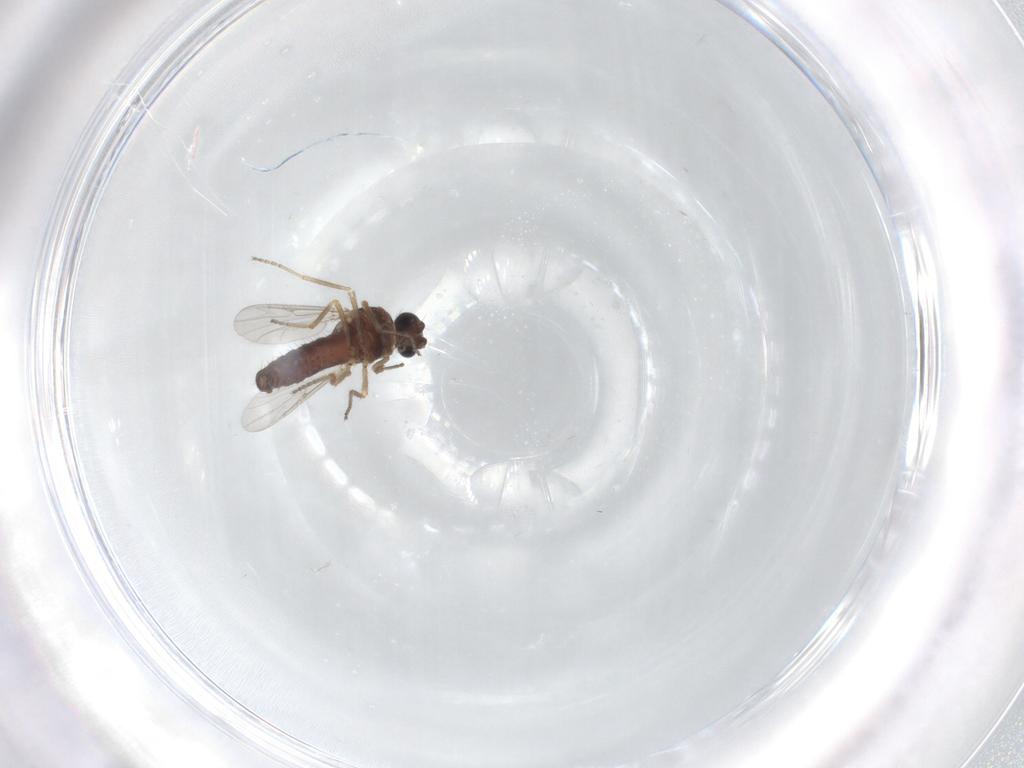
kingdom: Animalia
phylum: Arthropoda
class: Insecta
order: Diptera
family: Ceratopogonidae
